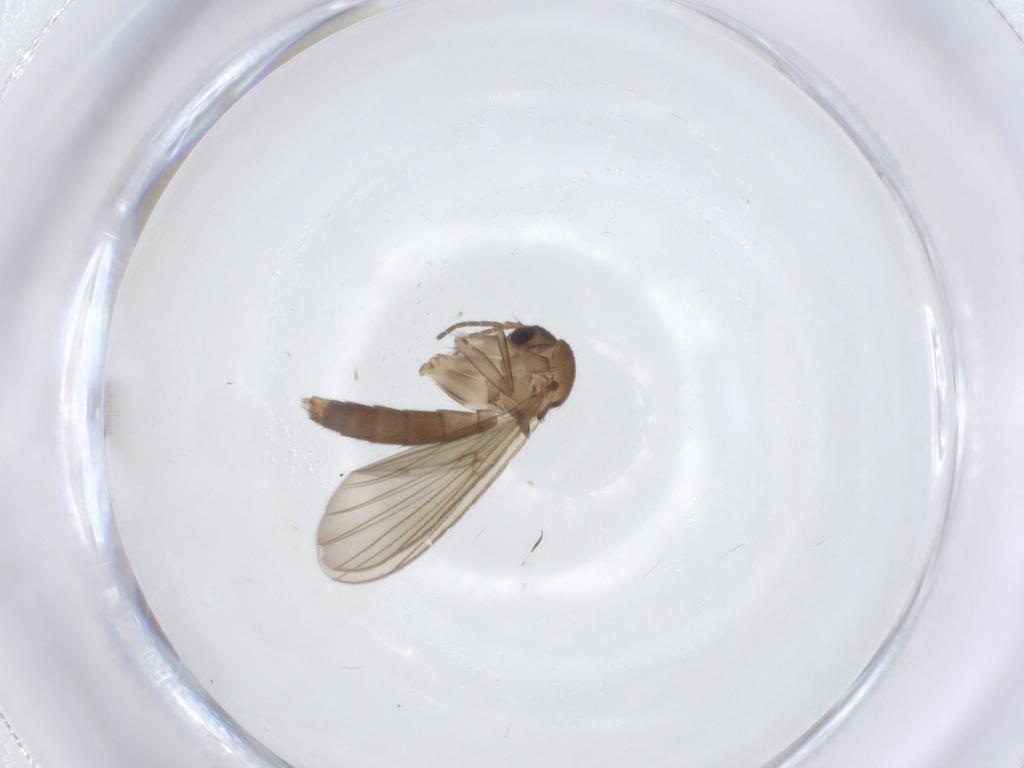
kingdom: Animalia
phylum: Arthropoda
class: Insecta
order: Diptera
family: Mycetophilidae
